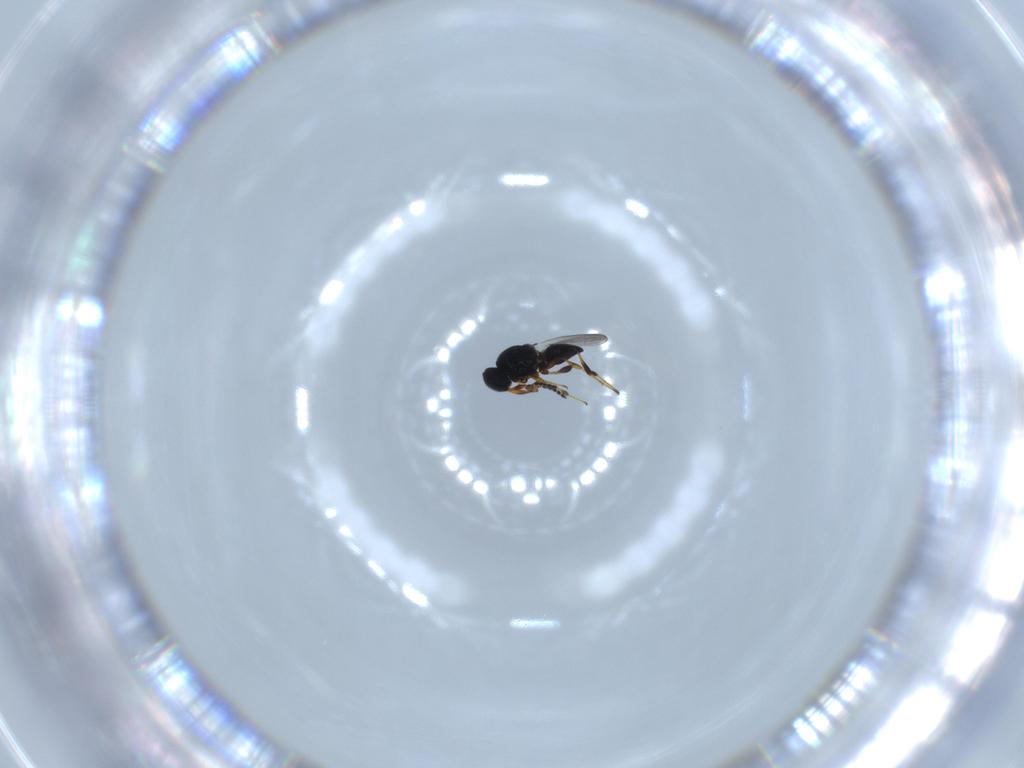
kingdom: Animalia
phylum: Arthropoda
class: Insecta
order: Hymenoptera
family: Platygastridae
